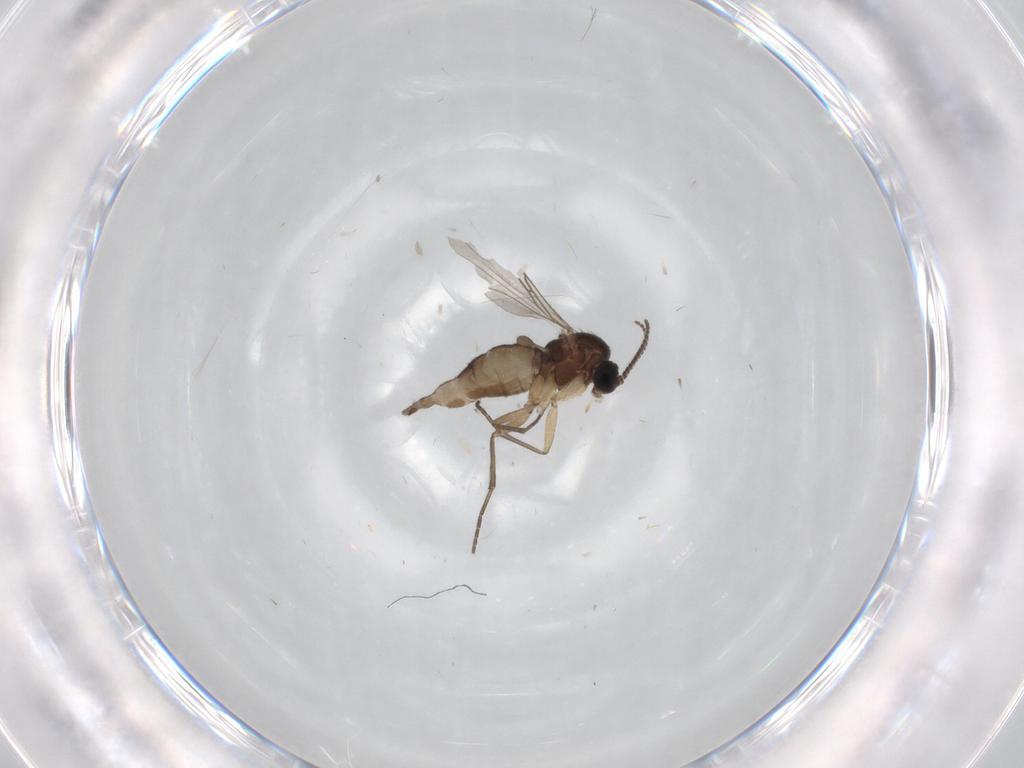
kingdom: Animalia
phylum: Arthropoda
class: Insecta
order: Diptera
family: Sciaridae
